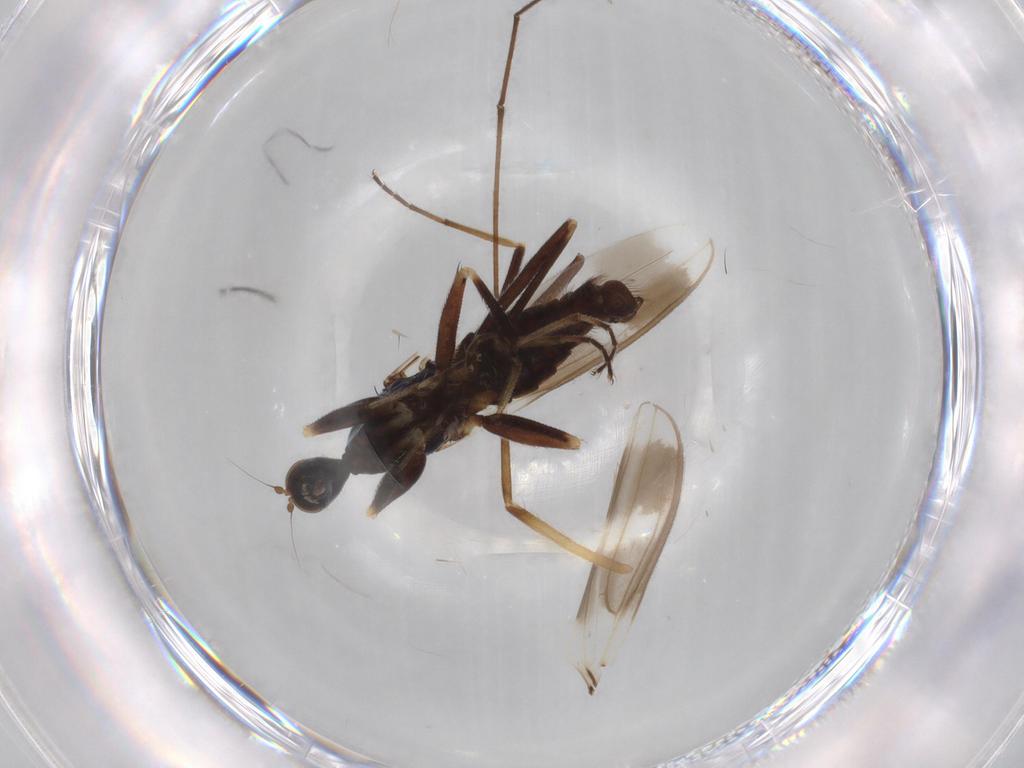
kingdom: Animalia
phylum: Arthropoda
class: Insecta
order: Diptera
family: Hybotidae
